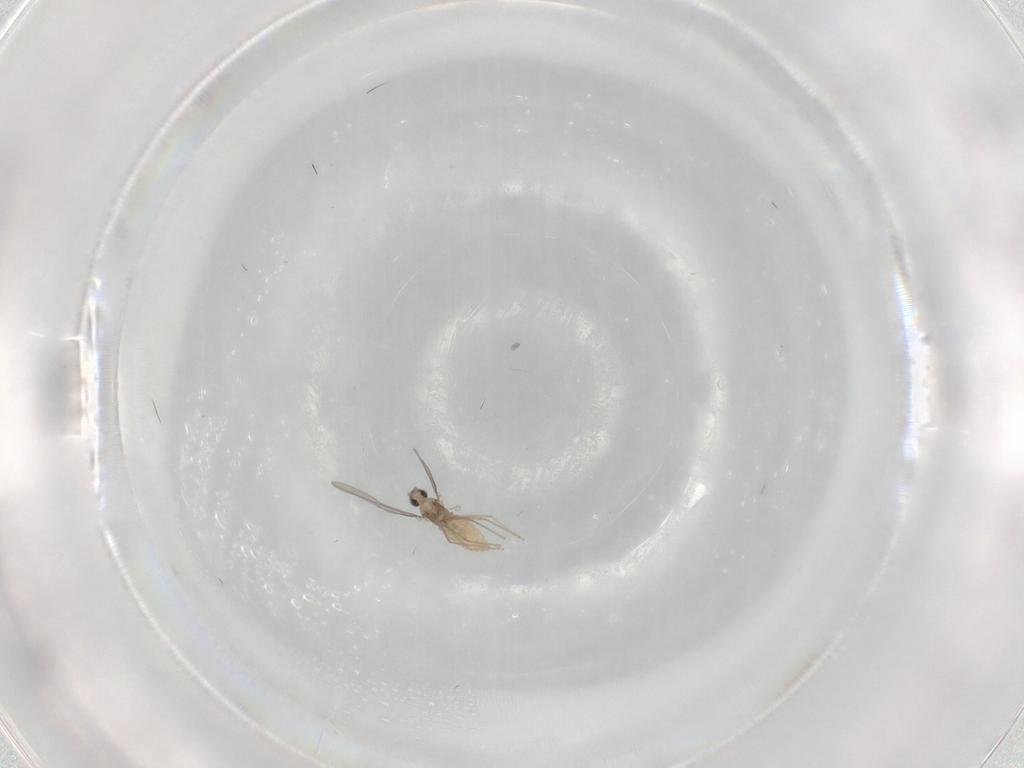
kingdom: Animalia
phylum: Arthropoda
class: Insecta
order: Diptera
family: Cecidomyiidae
